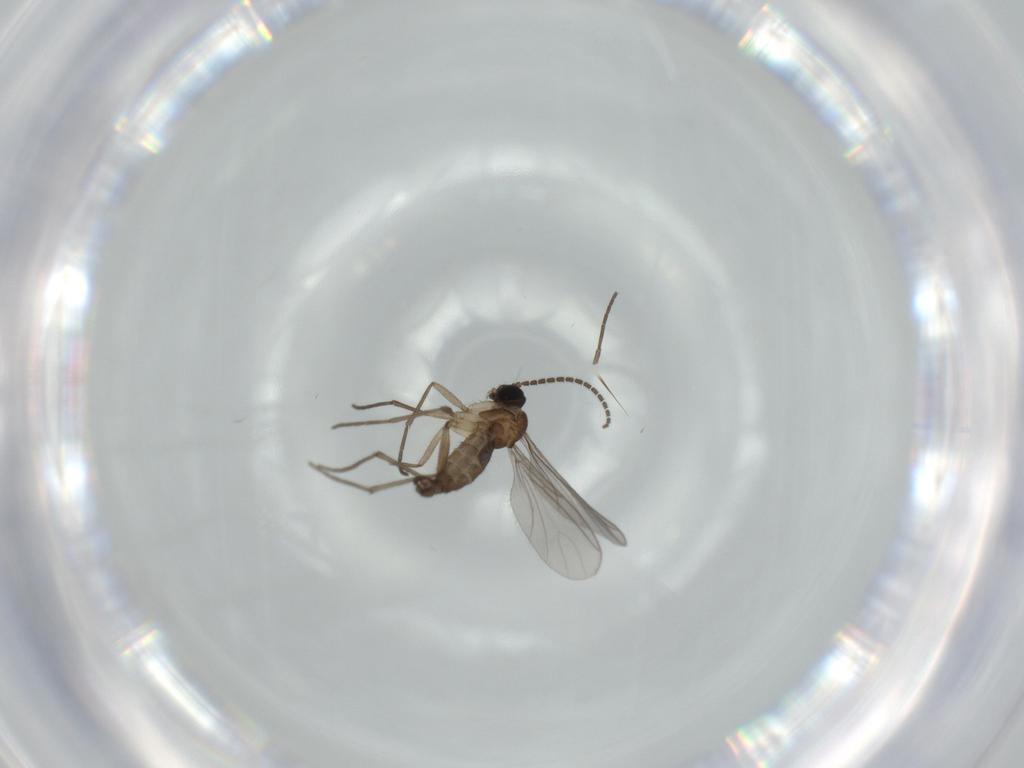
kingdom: Animalia
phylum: Arthropoda
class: Insecta
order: Diptera
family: Sciaridae
